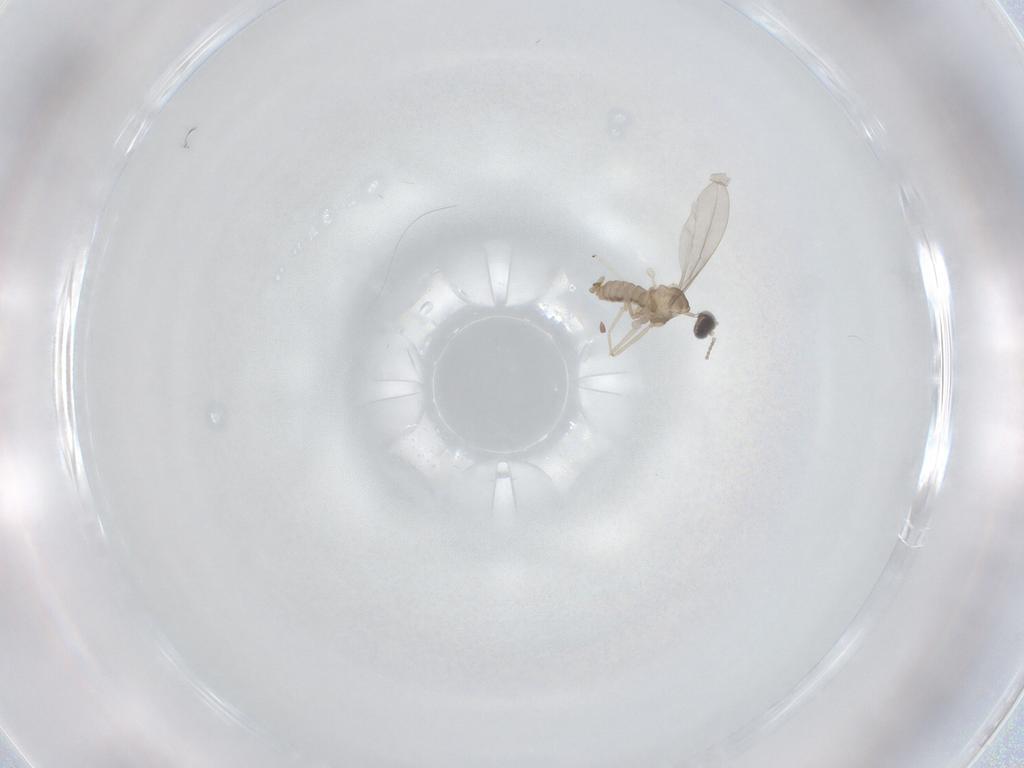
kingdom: Animalia
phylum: Arthropoda
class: Insecta
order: Diptera
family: Cecidomyiidae
